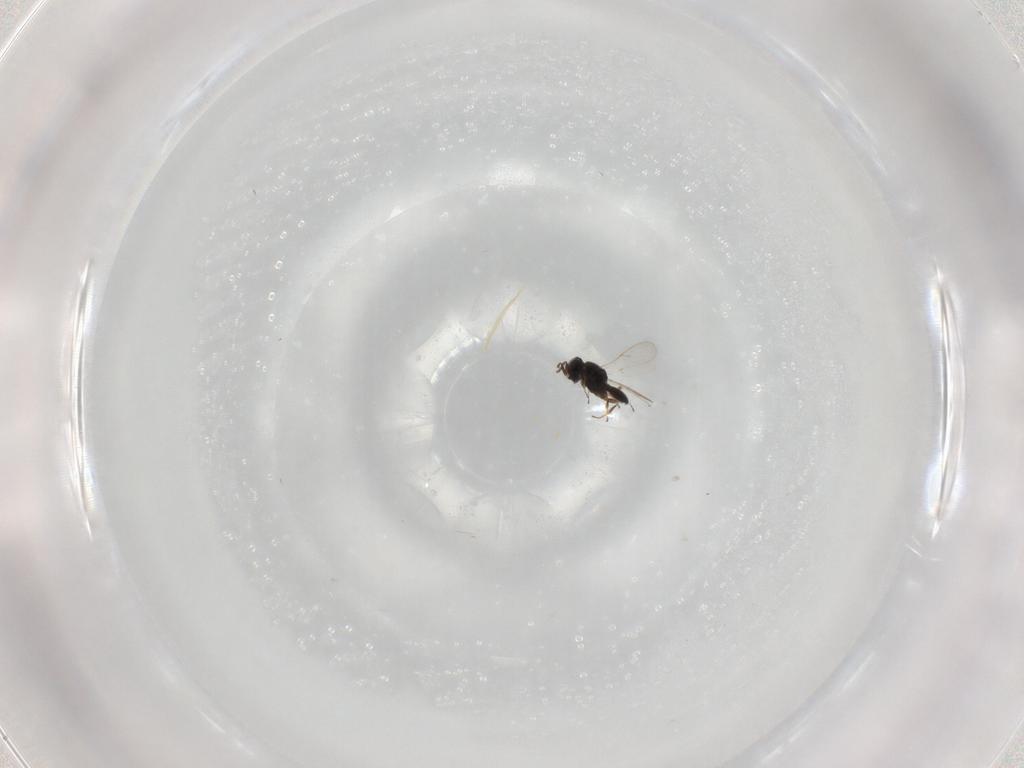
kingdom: Animalia
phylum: Arthropoda
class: Insecta
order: Hymenoptera
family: Scelionidae
